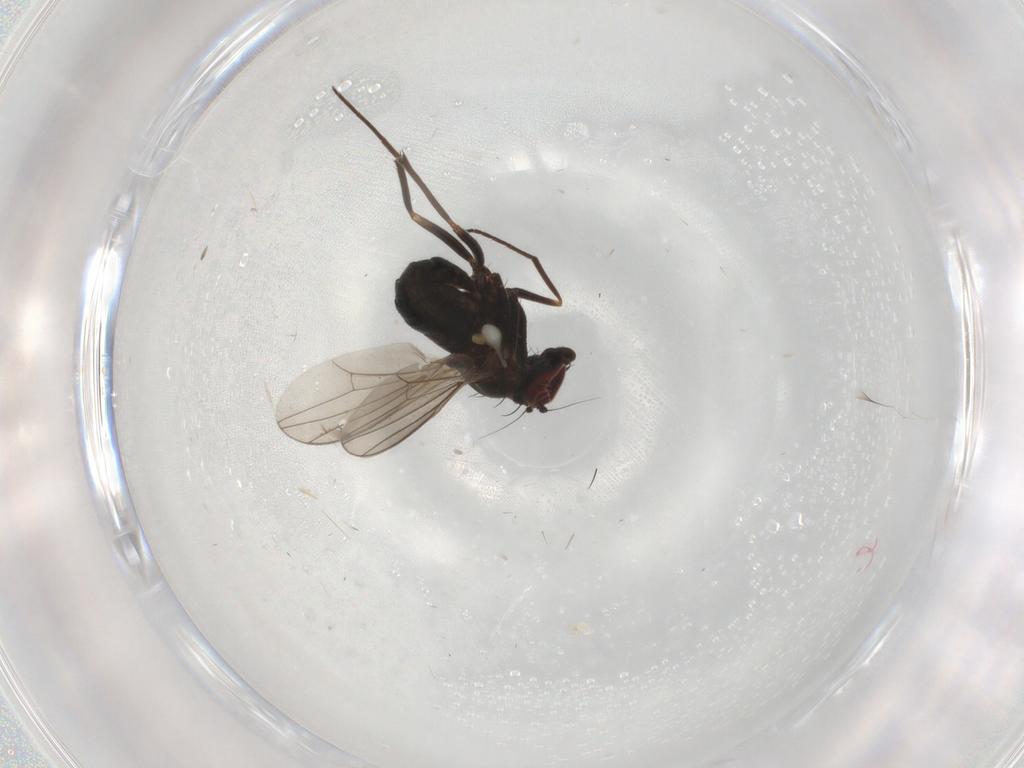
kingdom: Animalia
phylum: Arthropoda
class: Insecta
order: Diptera
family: Mycetophilidae
